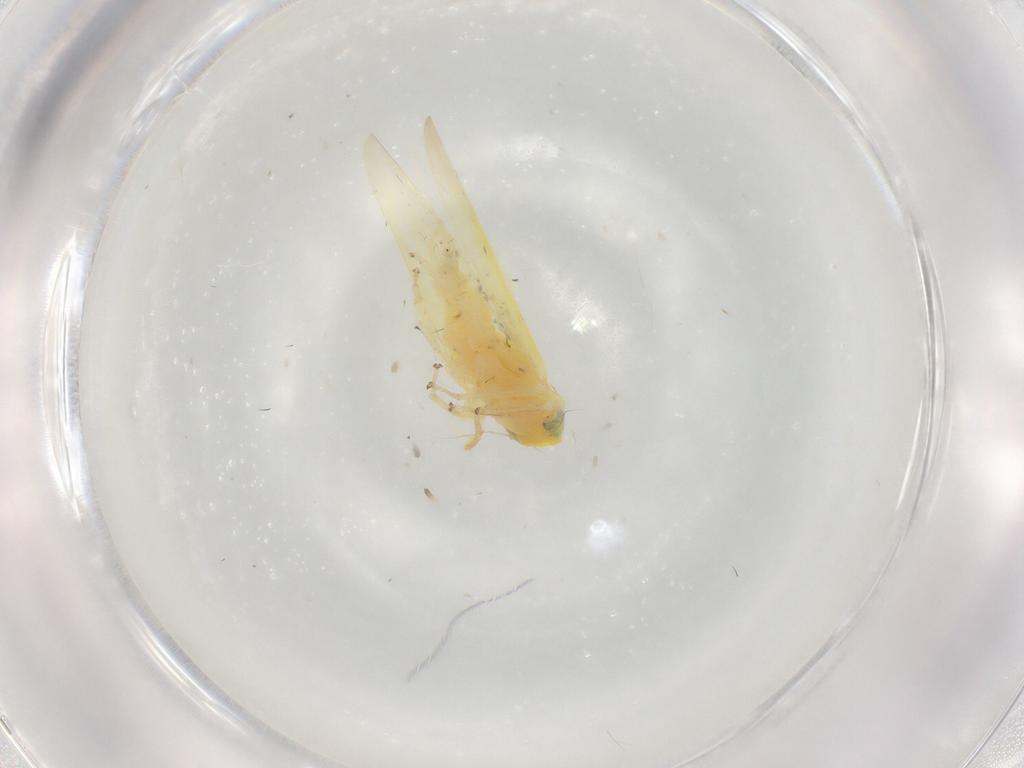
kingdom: Animalia
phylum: Arthropoda
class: Insecta
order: Hemiptera
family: Cicadellidae
